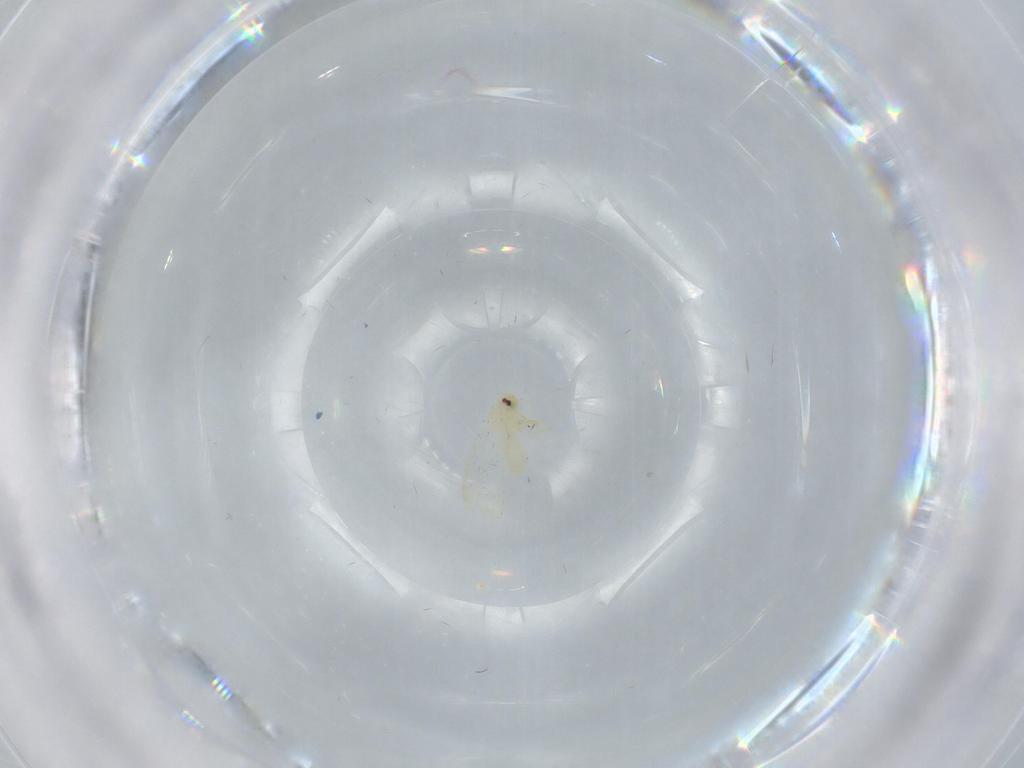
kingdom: Animalia
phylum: Arthropoda
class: Insecta
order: Hemiptera
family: Aleyrodidae
